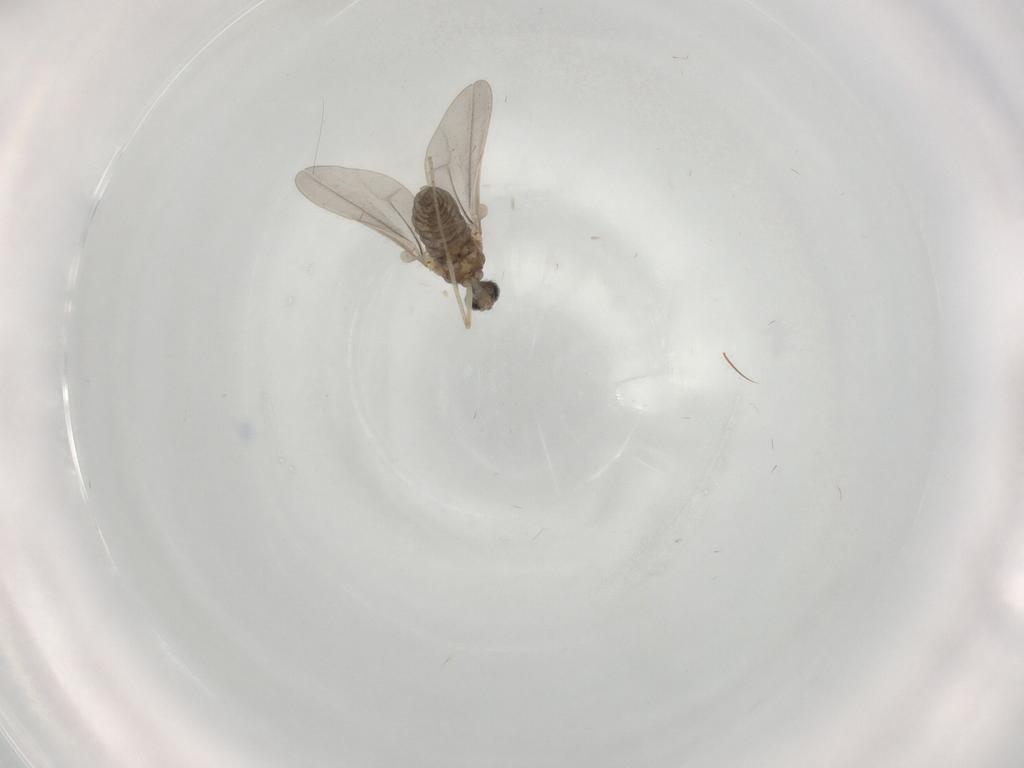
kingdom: Animalia
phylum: Arthropoda
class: Insecta
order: Diptera
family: Cecidomyiidae
